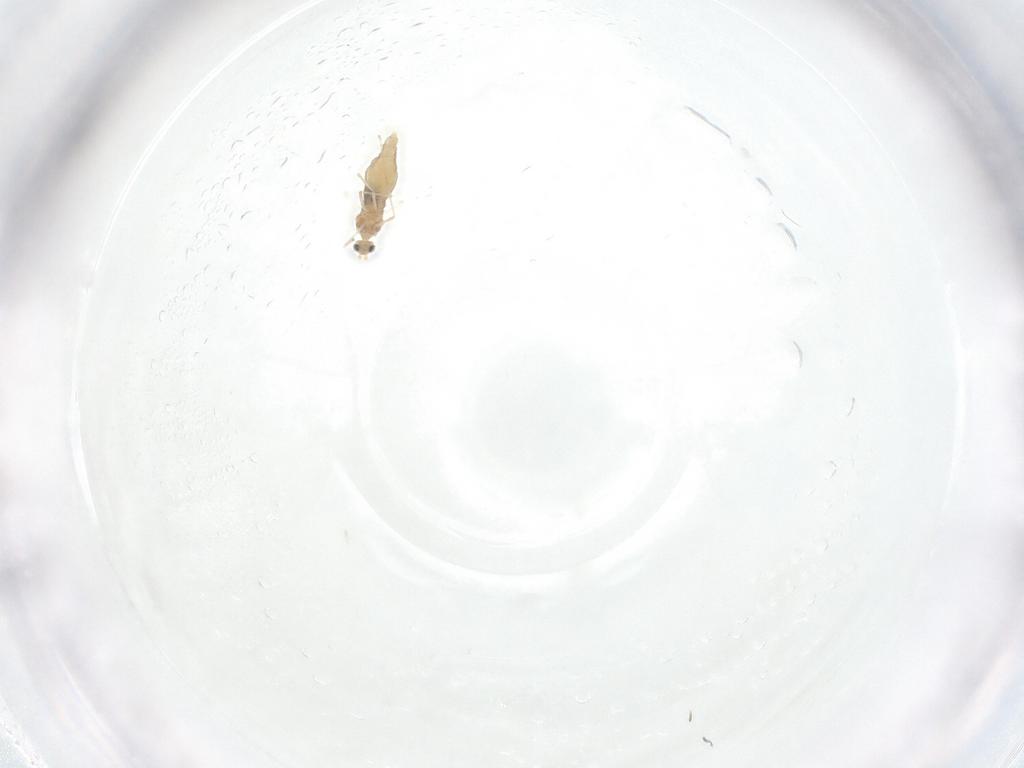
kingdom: Animalia
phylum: Arthropoda
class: Insecta
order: Diptera
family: Cecidomyiidae
